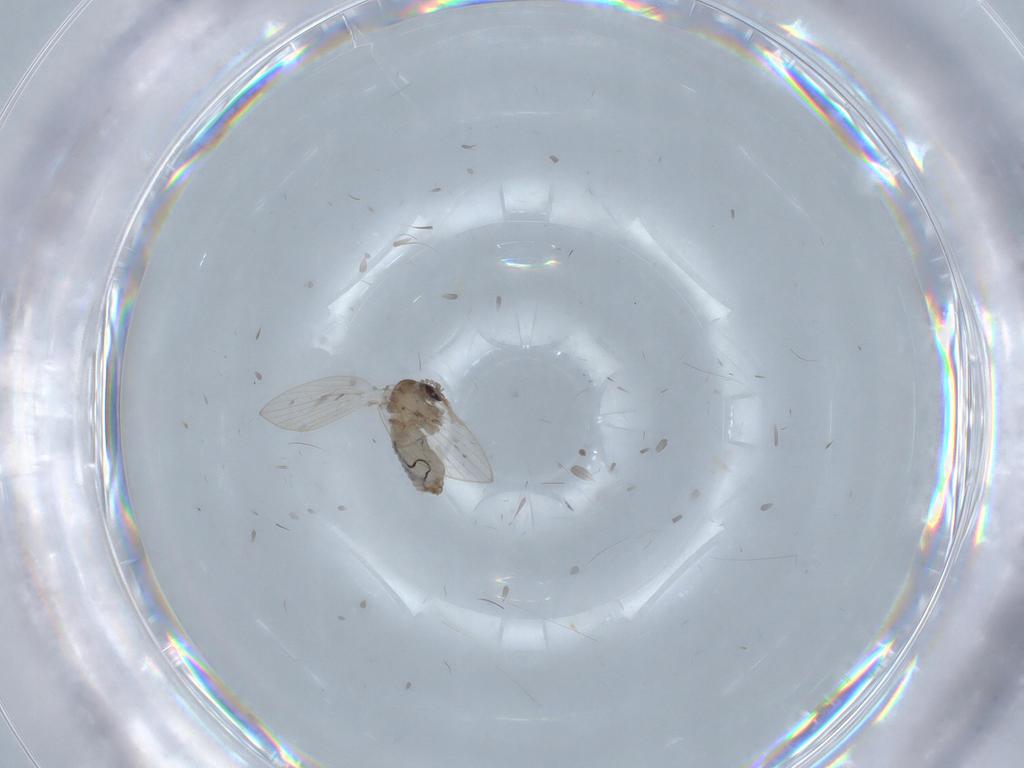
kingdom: Animalia
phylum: Arthropoda
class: Insecta
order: Diptera
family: Psychodidae
